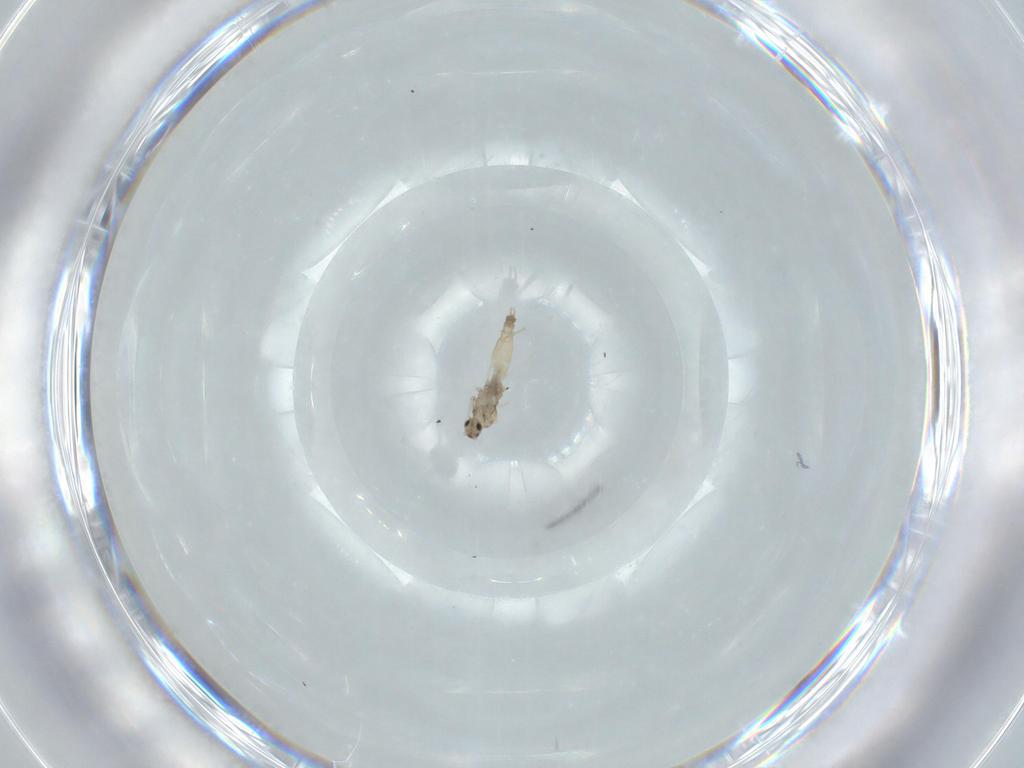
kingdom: Animalia
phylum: Arthropoda
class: Insecta
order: Diptera
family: Cecidomyiidae
